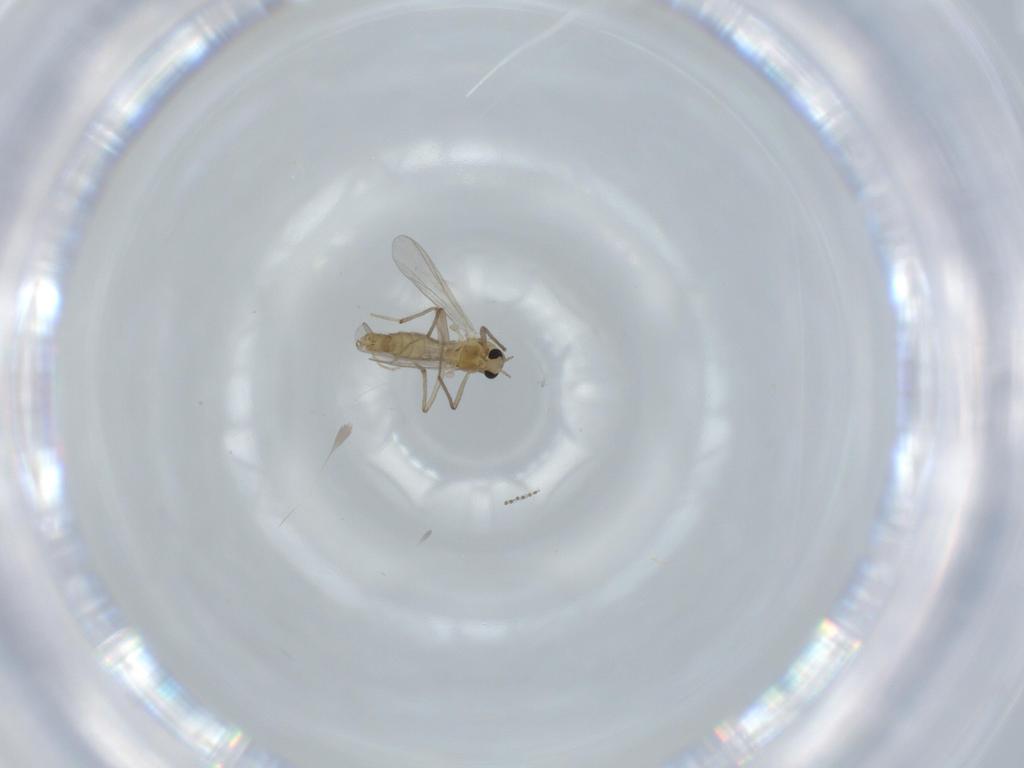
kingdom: Animalia
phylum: Arthropoda
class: Insecta
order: Diptera
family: Chironomidae
